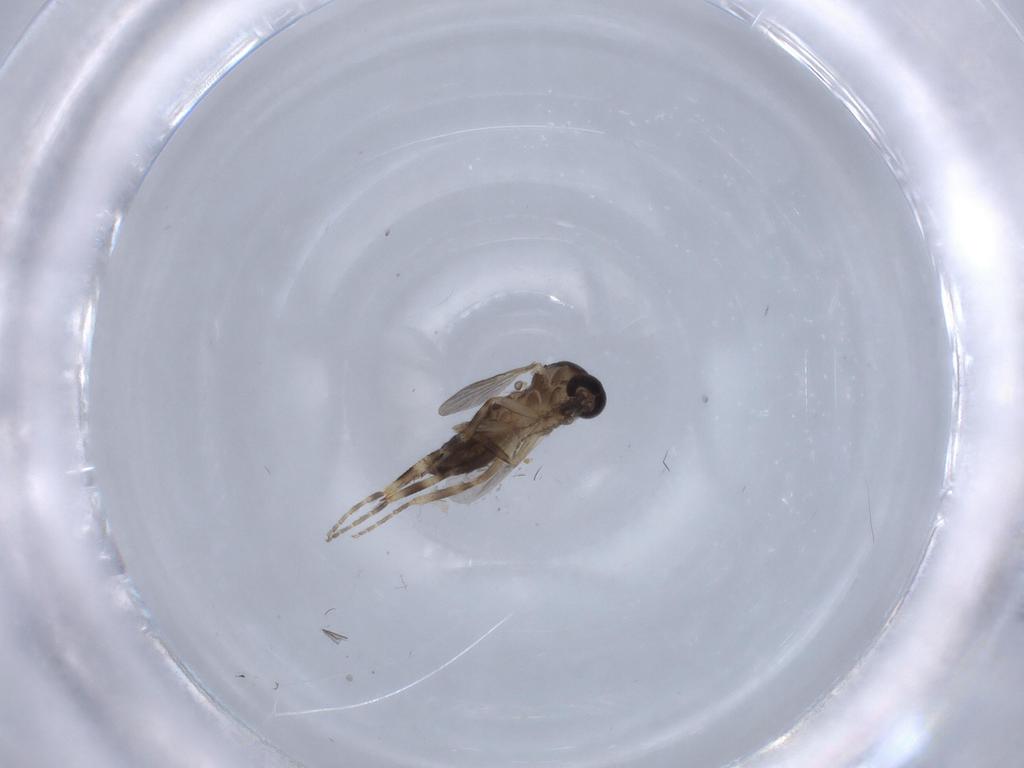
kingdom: Animalia
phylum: Arthropoda
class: Insecta
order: Diptera
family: Ceratopogonidae
